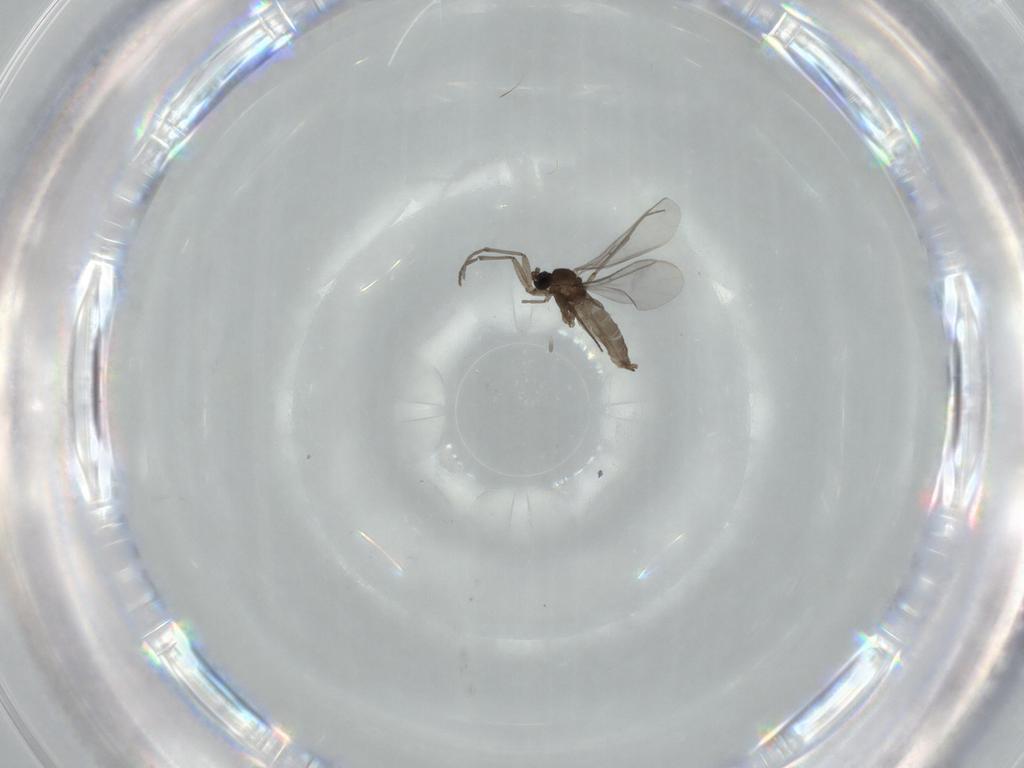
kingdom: Animalia
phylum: Arthropoda
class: Insecta
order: Diptera
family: Sciaridae
